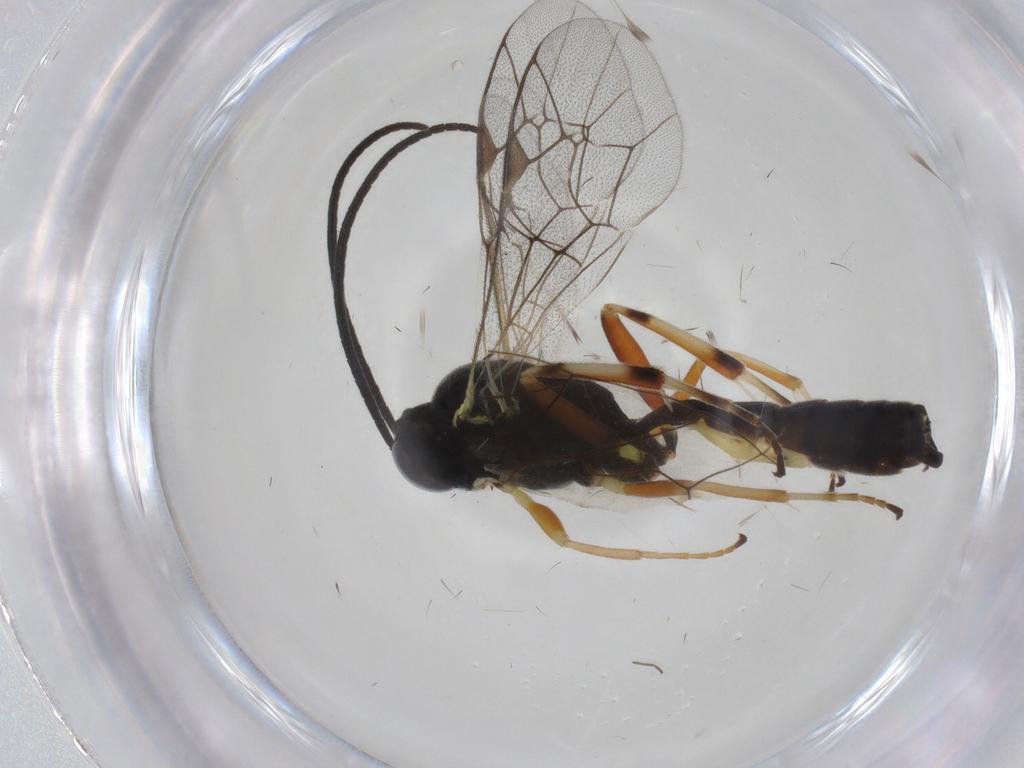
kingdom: Animalia
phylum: Arthropoda
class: Insecta
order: Hymenoptera
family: Ichneumonidae
